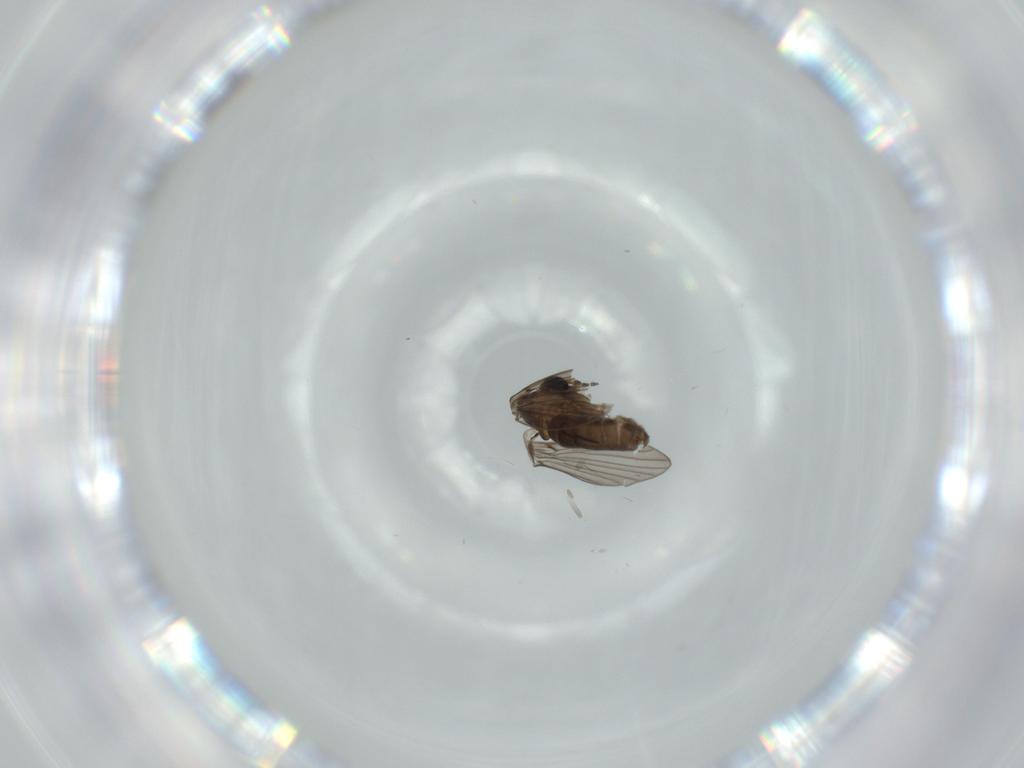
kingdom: Animalia
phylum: Arthropoda
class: Insecta
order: Diptera
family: Psychodidae
